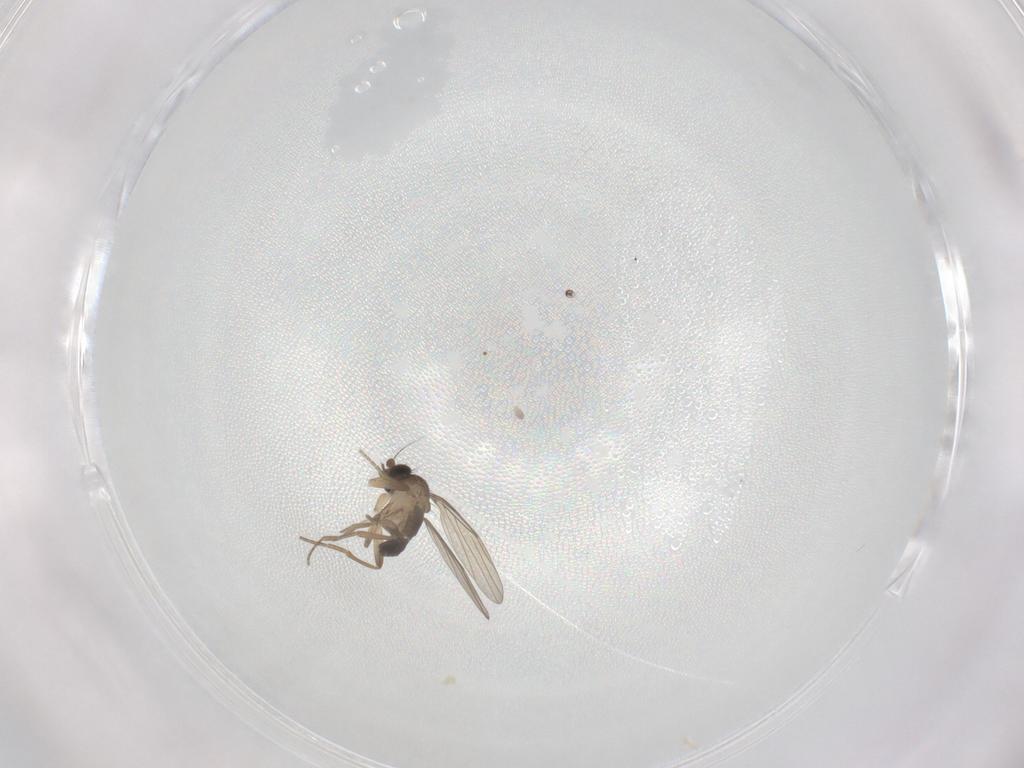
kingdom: Animalia
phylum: Arthropoda
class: Insecta
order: Diptera
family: Phoridae
